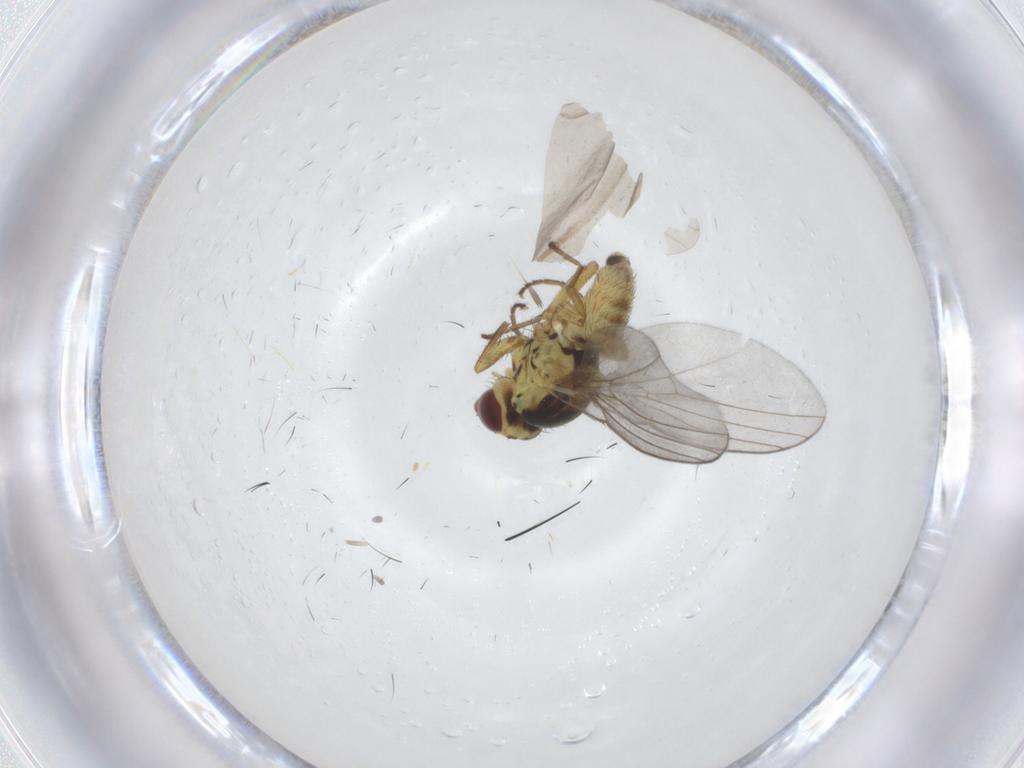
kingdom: Animalia
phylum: Arthropoda
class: Insecta
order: Diptera
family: Agromyzidae
